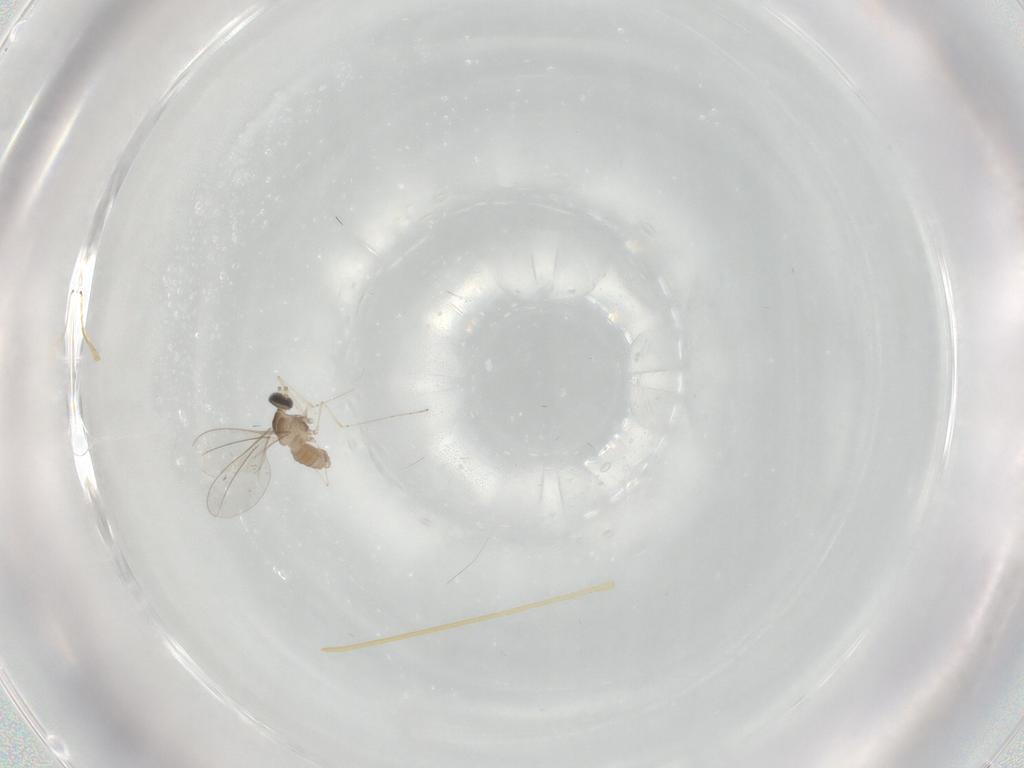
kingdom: Animalia
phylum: Arthropoda
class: Insecta
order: Diptera
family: Cecidomyiidae
